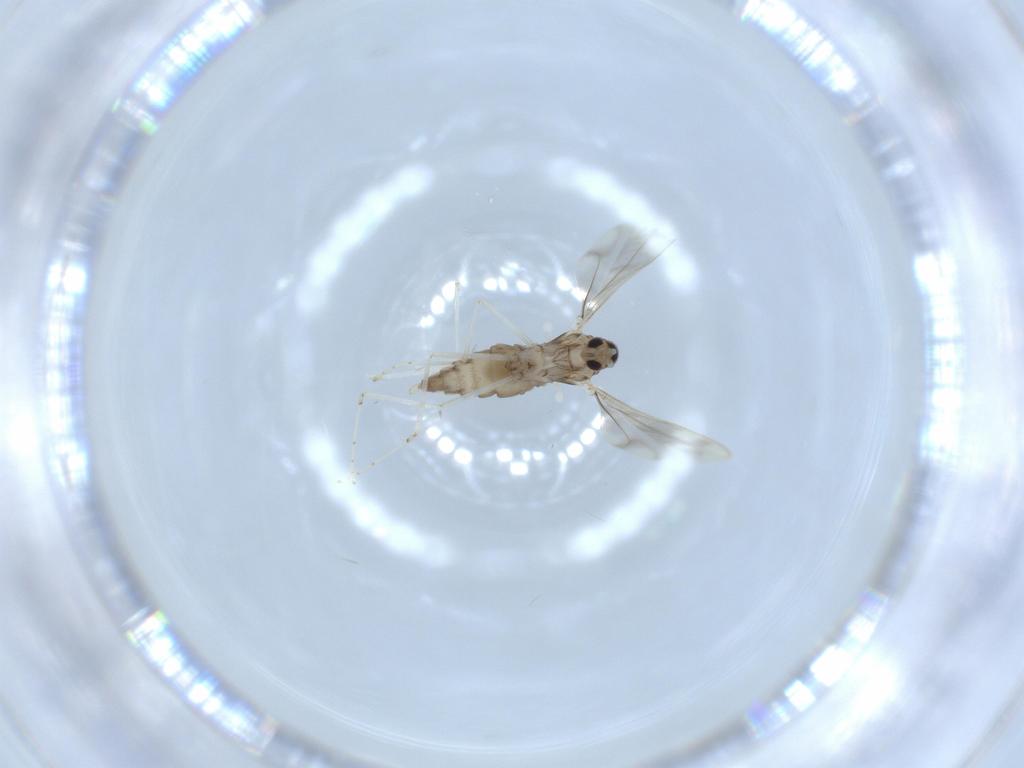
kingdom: Animalia
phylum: Arthropoda
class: Insecta
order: Diptera
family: Cecidomyiidae
